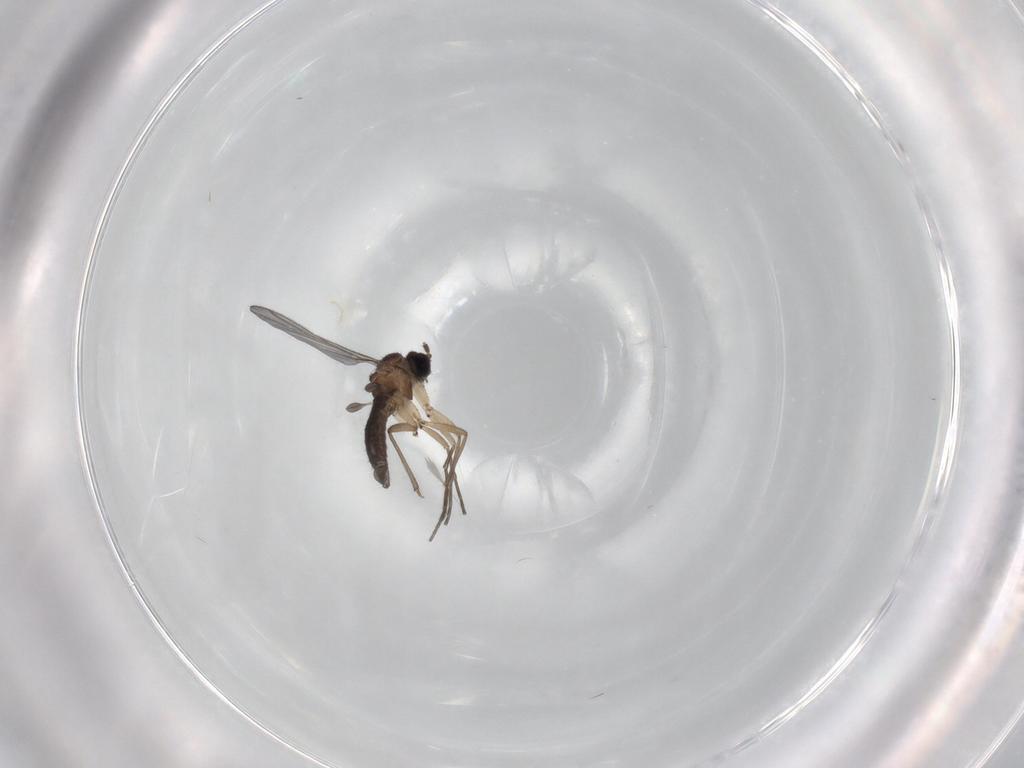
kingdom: Animalia
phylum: Arthropoda
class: Insecta
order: Diptera
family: Sciaridae
